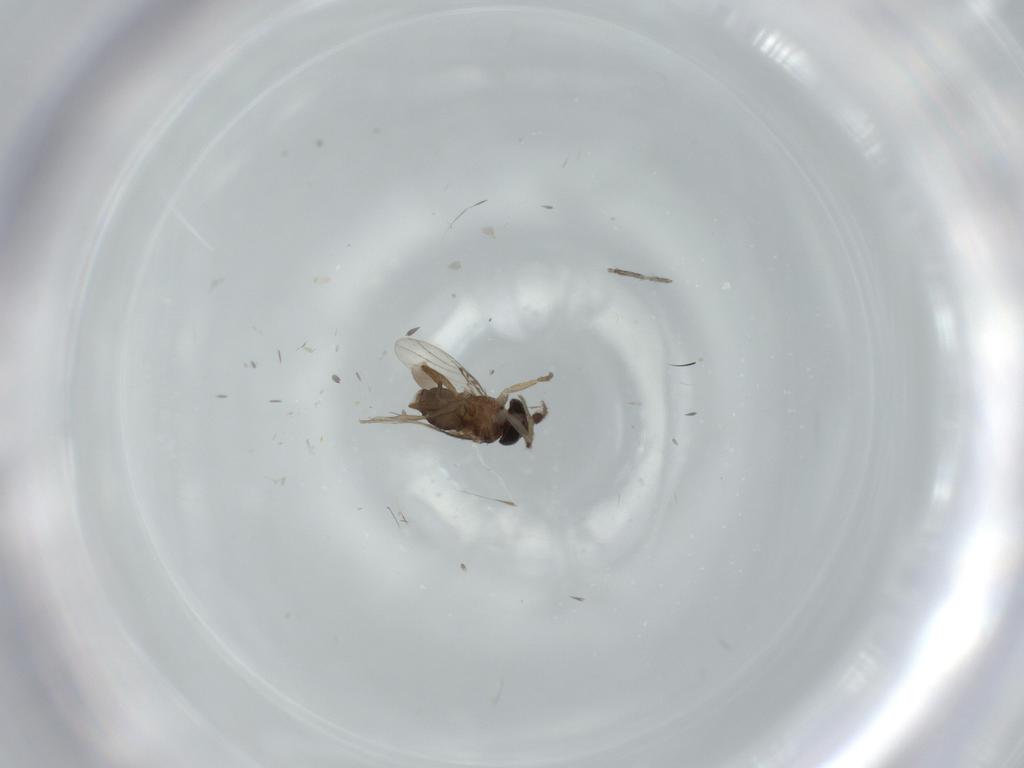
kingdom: Animalia
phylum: Arthropoda
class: Insecta
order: Diptera
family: Phoridae
